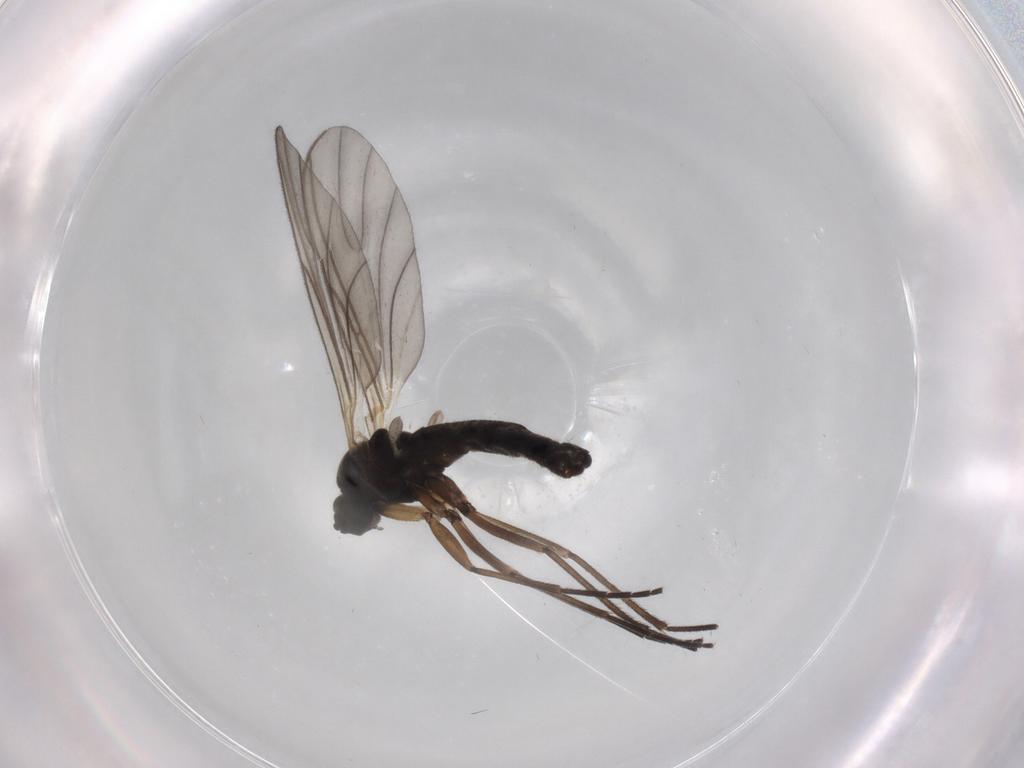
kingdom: Animalia
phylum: Arthropoda
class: Insecta
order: Diptera
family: Sciaridae
